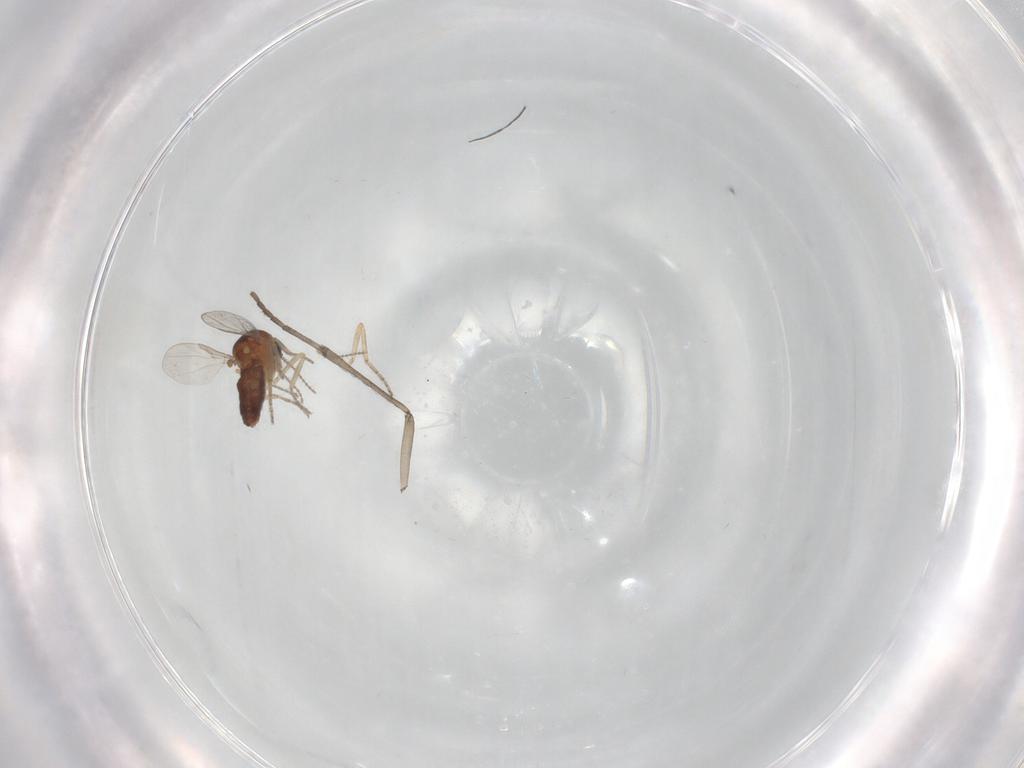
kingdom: Animalia
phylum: Arthropoda
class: Insecta
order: Diptera
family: Ceratopogonidae
